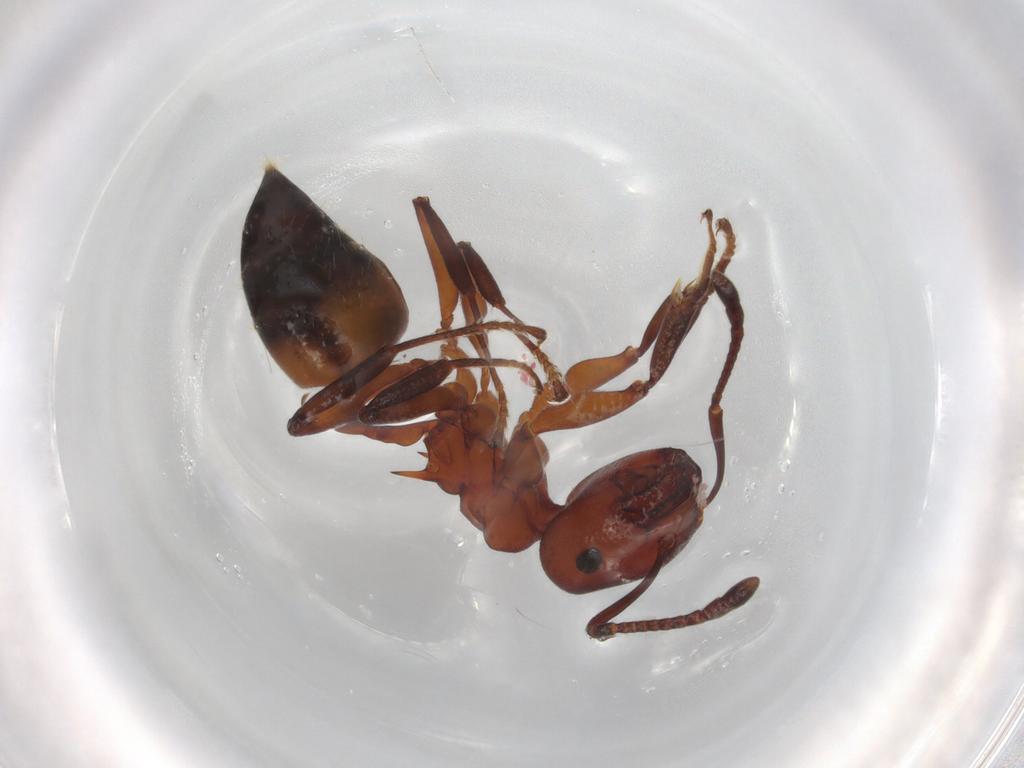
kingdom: Animalia
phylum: Arthropoda
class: Insecta
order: Hymenoptera
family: Formicidae
